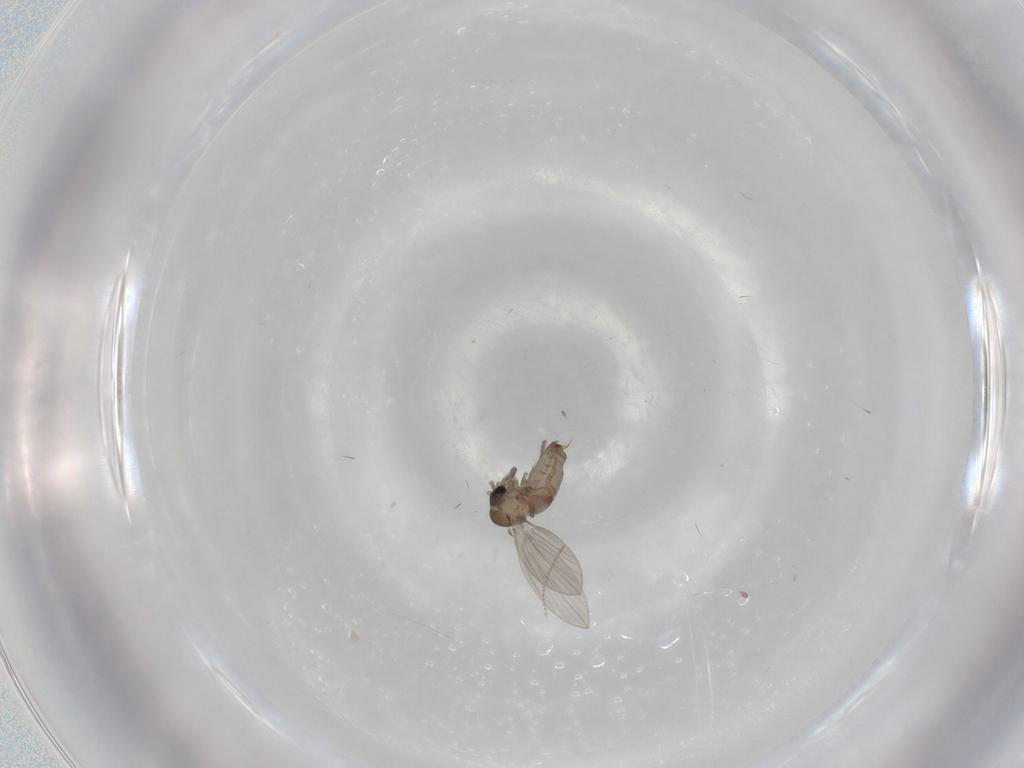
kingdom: Animalia
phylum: Arthropoda
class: Insecta
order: Diptera
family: Psychodidae
